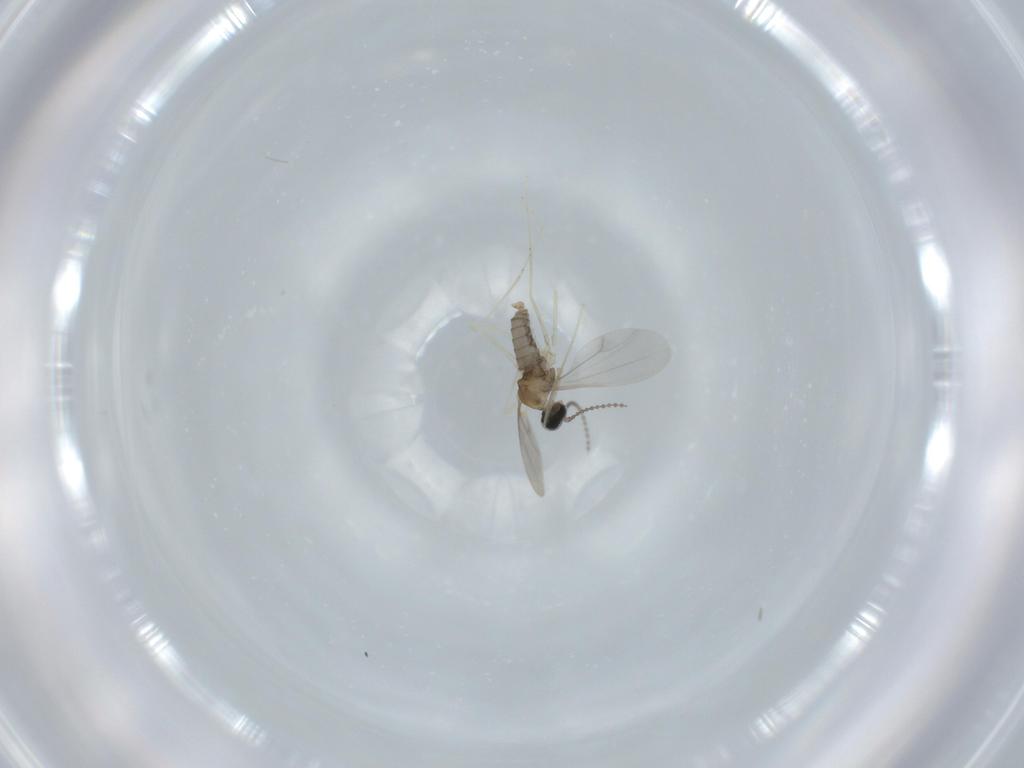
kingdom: Animalia
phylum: Arthropoda
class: Insecta
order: Diptera
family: Cecidomyiidae
